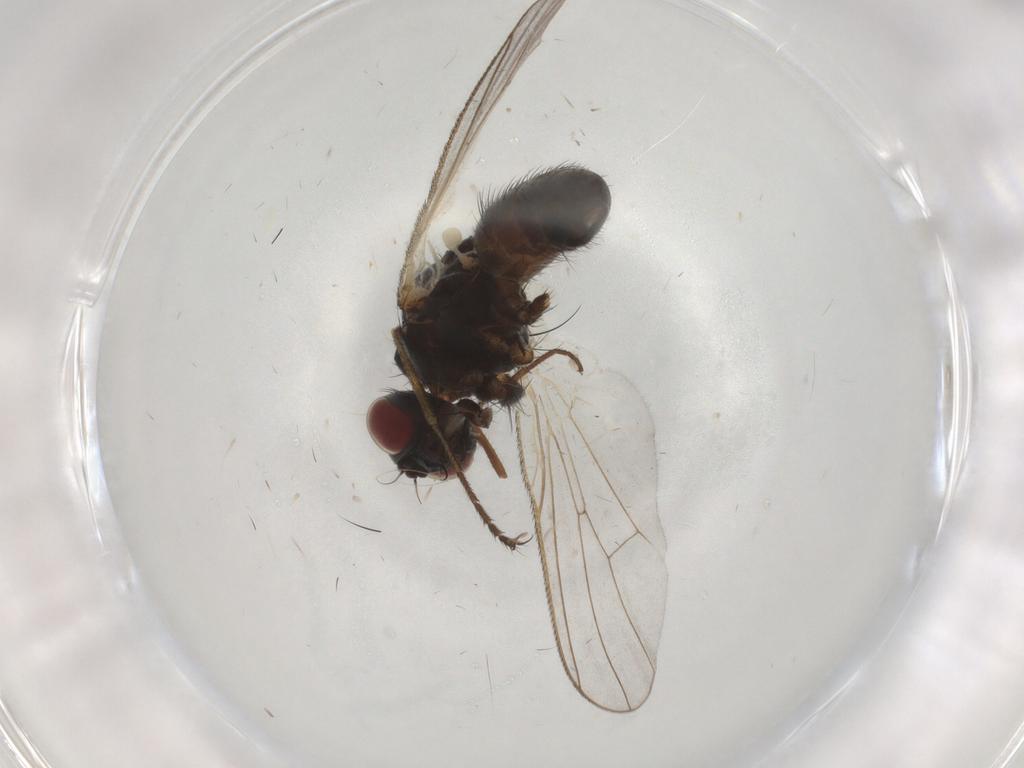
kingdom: Animalia
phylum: Arthropoda
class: Insecta
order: Diptera
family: Empididae
